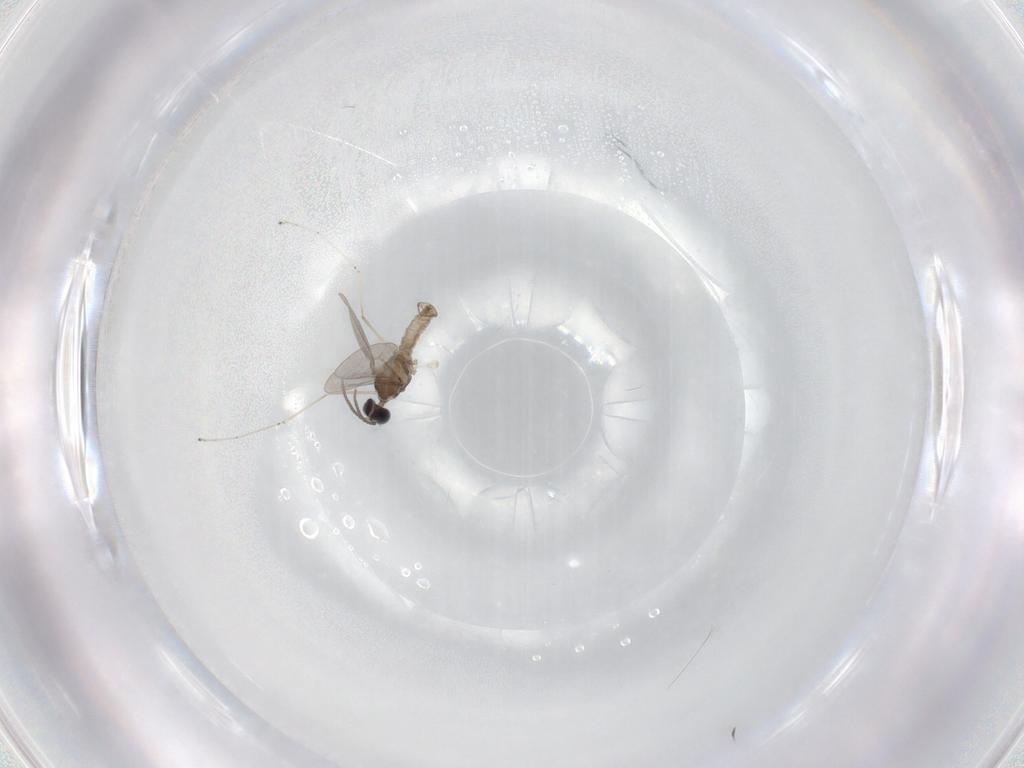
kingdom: Animalia
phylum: Arthropoda
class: Insecta
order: Diptera
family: Cecidomyiidae
